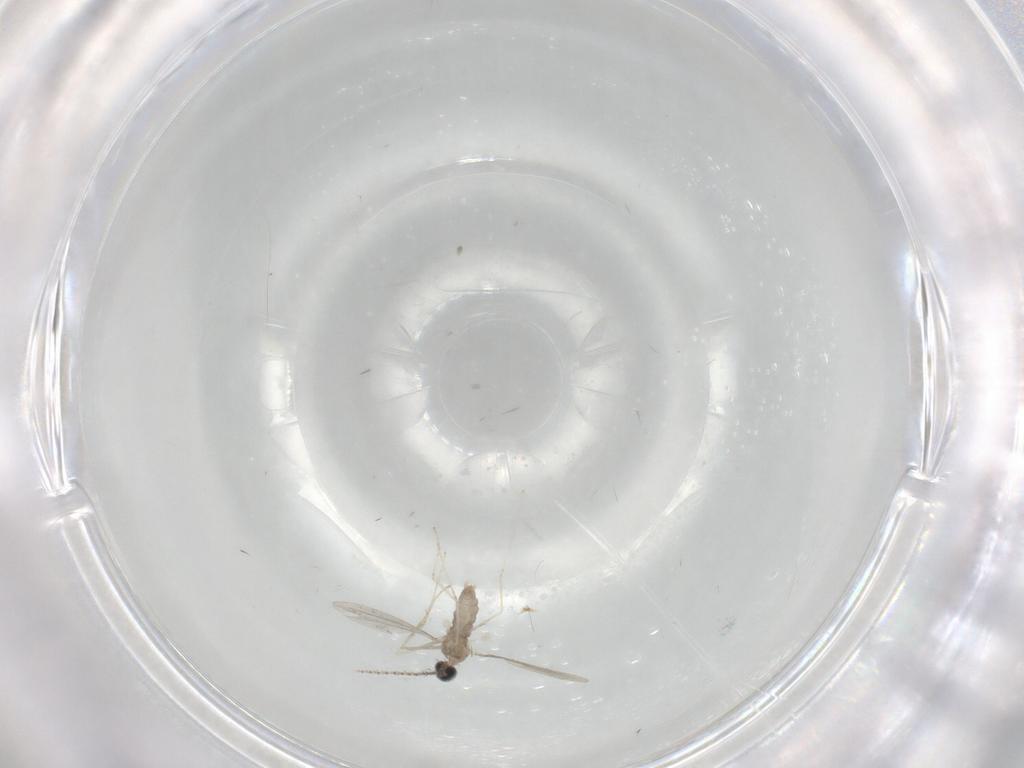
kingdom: Animalia
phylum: Arthropoda
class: Insecta
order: Diptera
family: Cecidomyiidae
